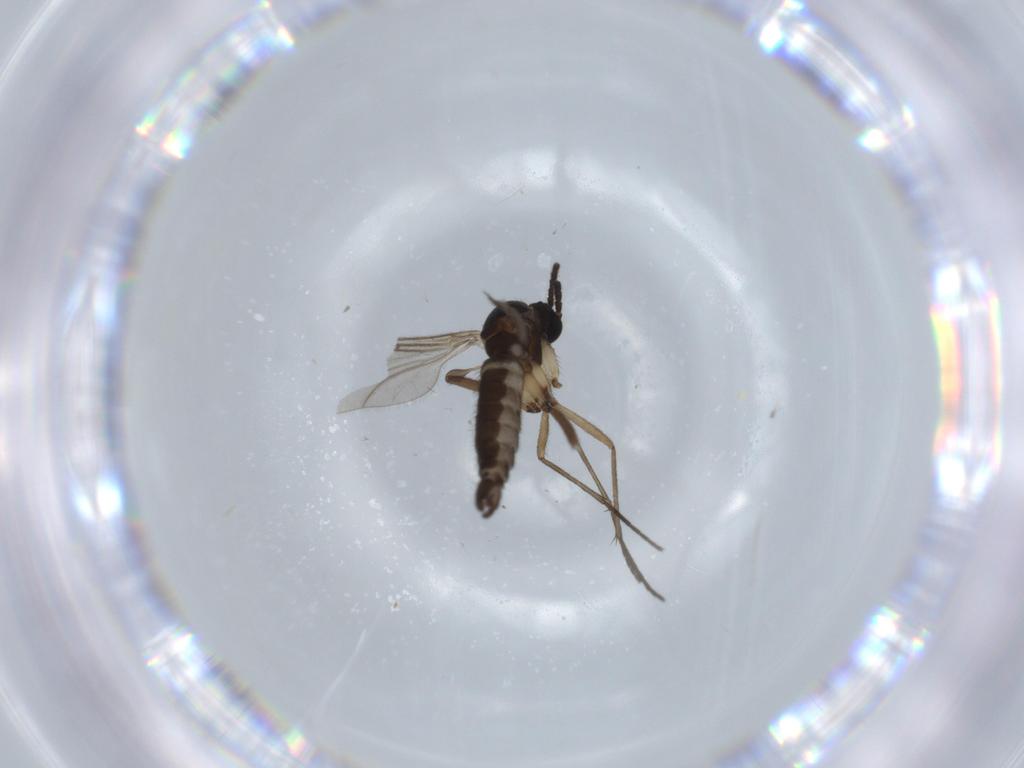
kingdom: Animalia
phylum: Arthropoda
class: Insecta
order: Diptera
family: Sciaridae
